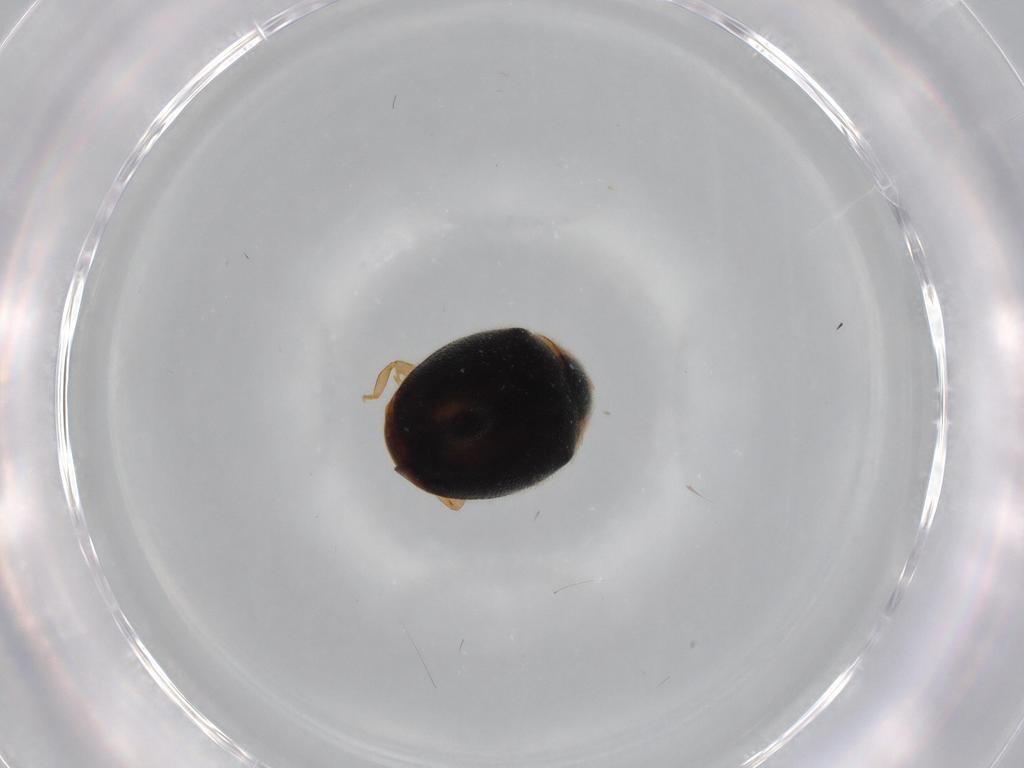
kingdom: Animalia
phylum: Arthropoda
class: Insecta
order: Coleoptera
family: Coccinellidae
